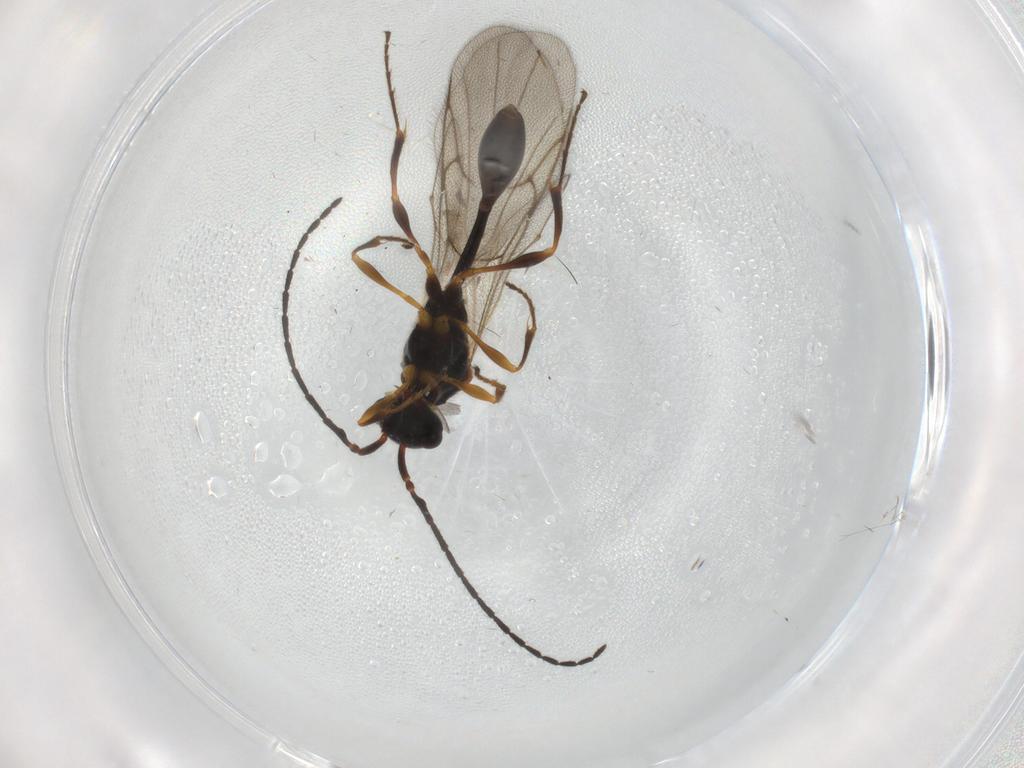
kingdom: Animalia
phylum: Arthropoda
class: Insecta
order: Hymenoptera
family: Diapriidae
